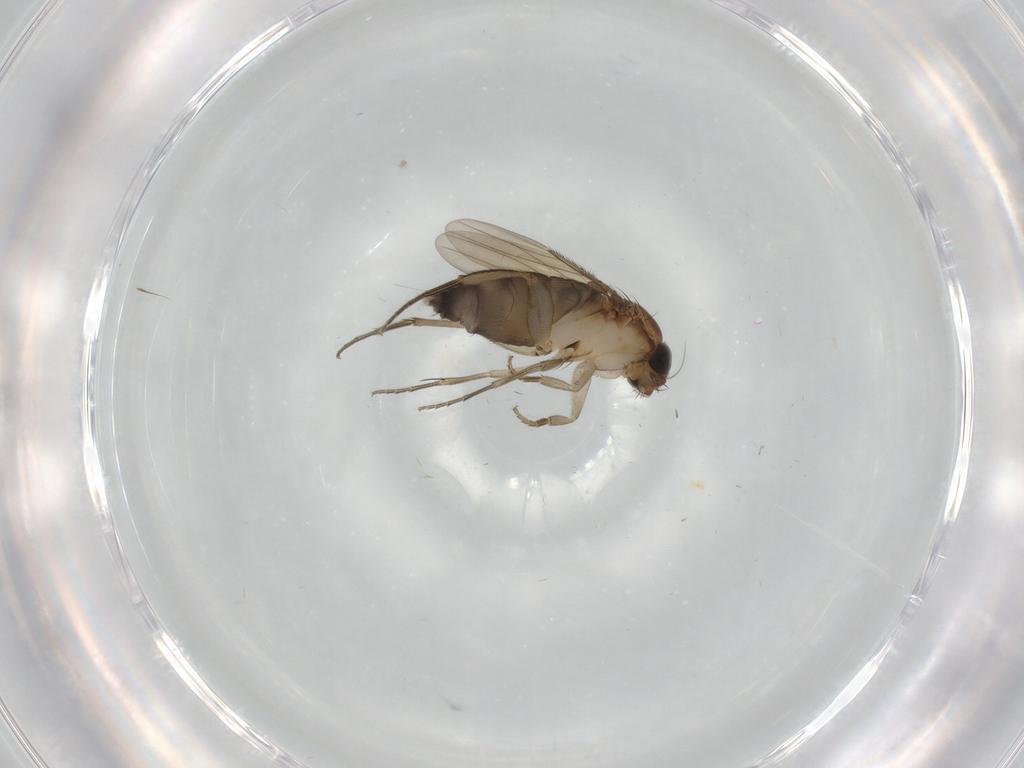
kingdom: Animalia
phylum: Arthropoda
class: Insecta
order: Diptera
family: Phoridae
